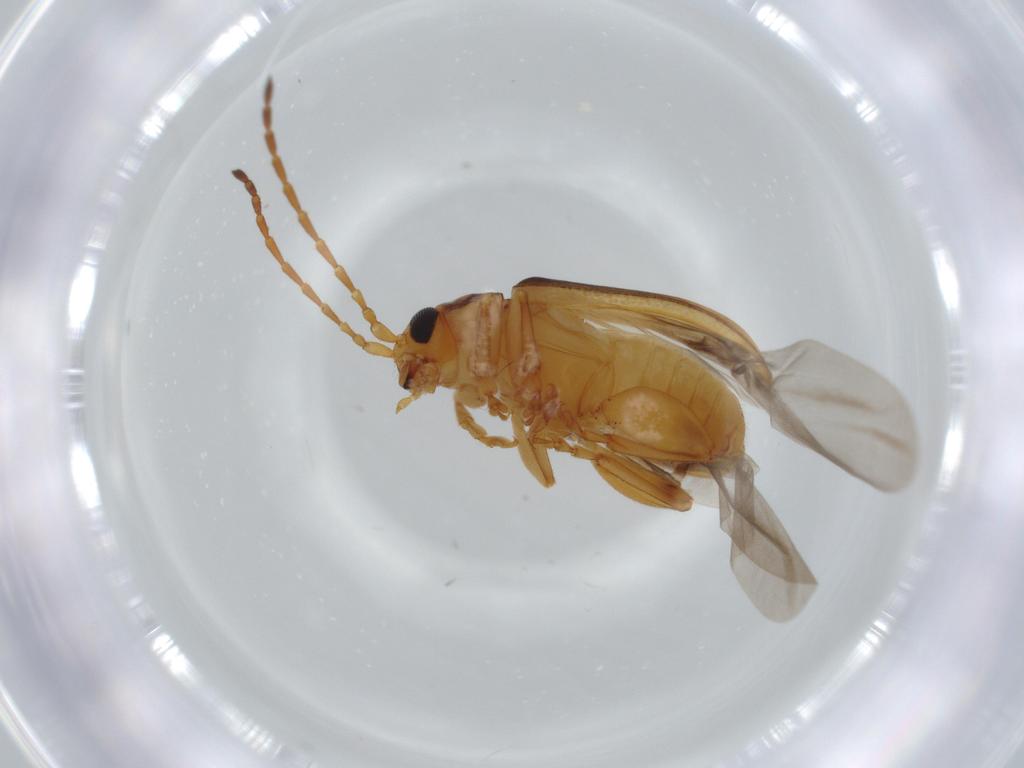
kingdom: Animalia
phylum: Arthropoda
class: Insecta
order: Coleoptera
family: Chrysomelidae
